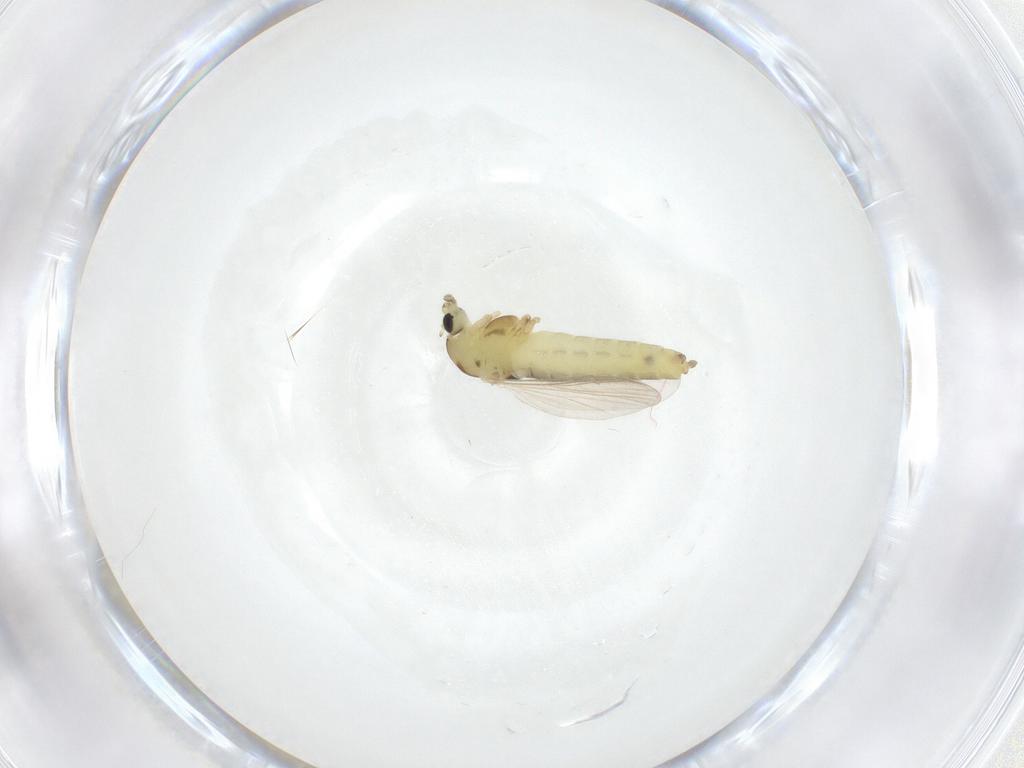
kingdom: Animalia
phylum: Arthropoda
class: Insecta
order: Diptera
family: Chironomidae
